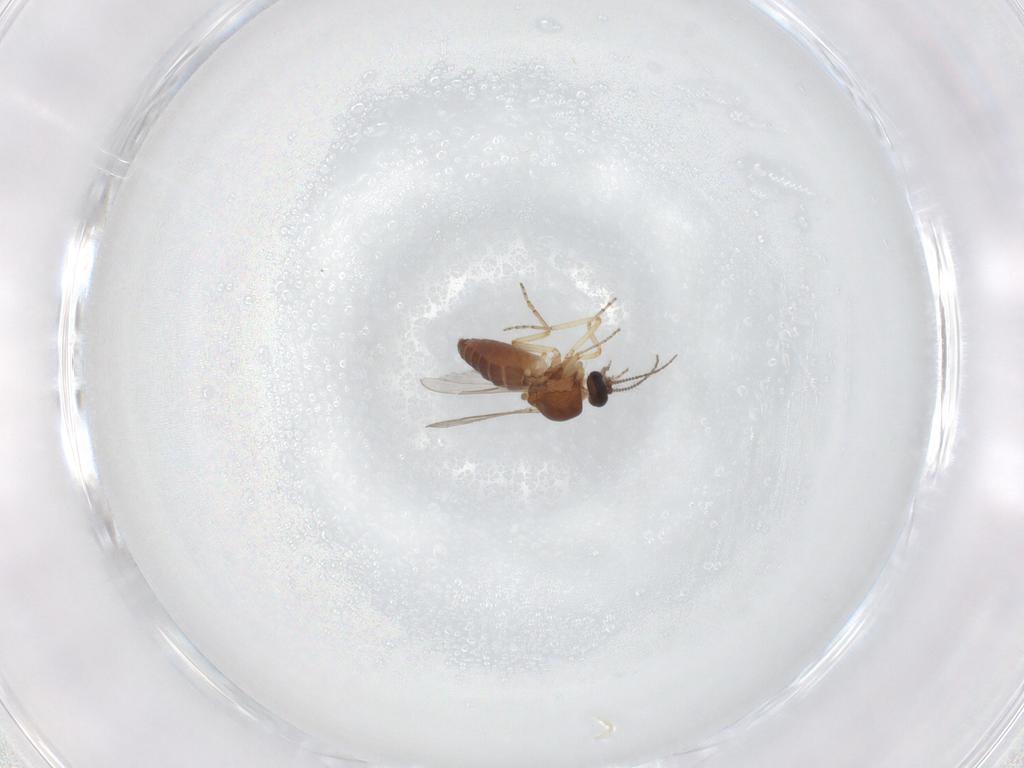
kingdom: Animalia
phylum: Arthropoda
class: Insecta
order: Diptera
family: Ceratopogonidae
